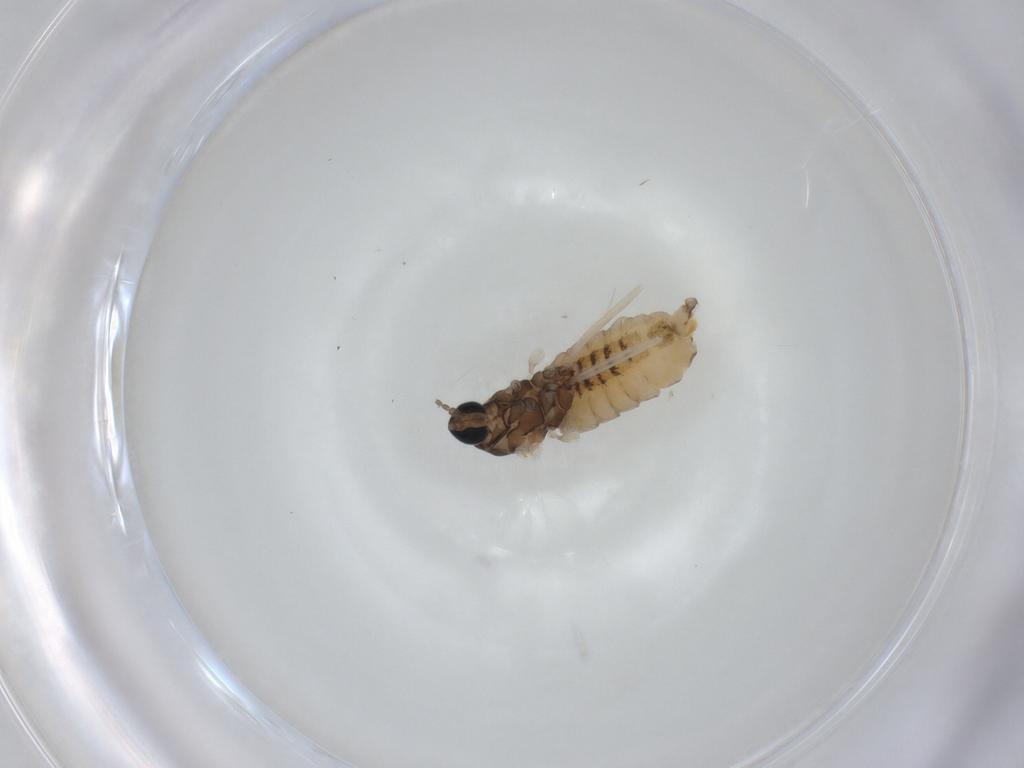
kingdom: Animalia
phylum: Arthropoda
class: Insecta
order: Diptera
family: Cecidomyiidae
